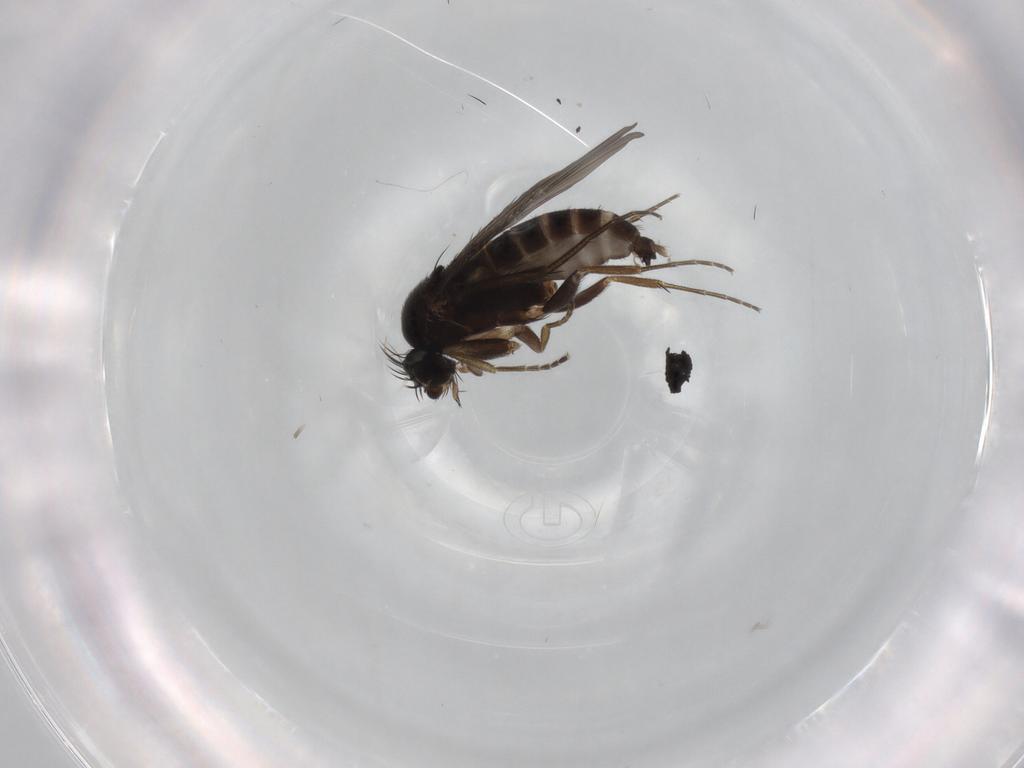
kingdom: Animalia
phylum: Arthropoda
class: Insecta
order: Diptera
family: Phoridae
